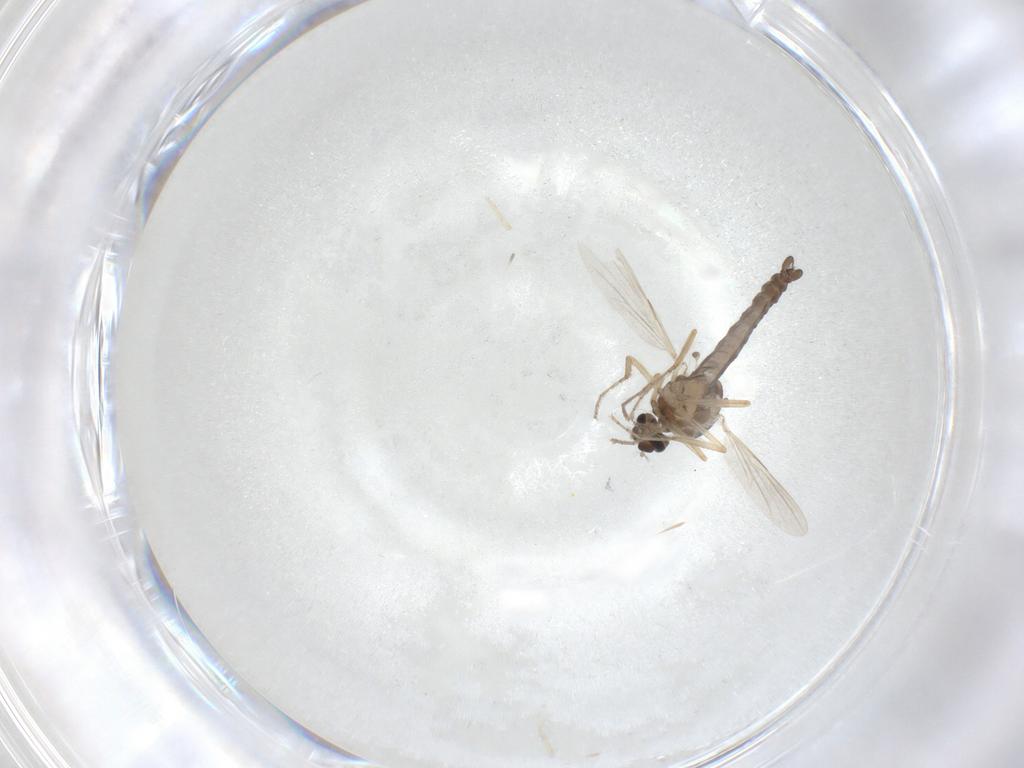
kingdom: Animalia
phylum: Arthropoda
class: Insecta
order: Diptera
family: Ceratopogonidae
